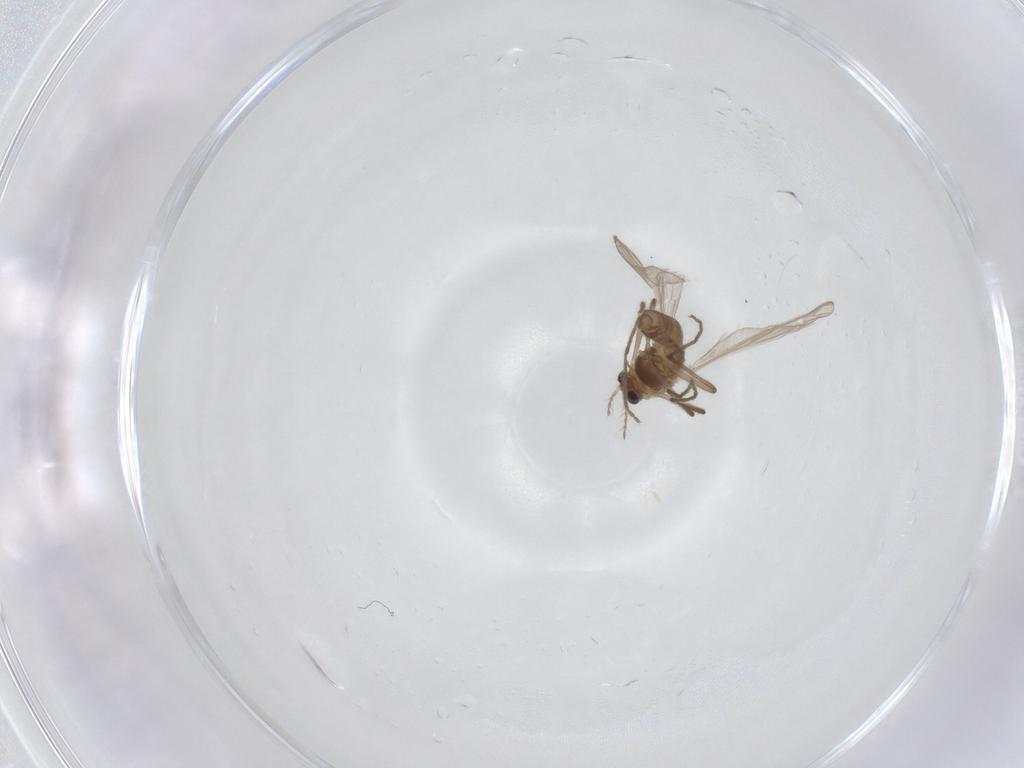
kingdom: Animalia
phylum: Arthropoda
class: Insecta
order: Diptera
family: Chironomidae
